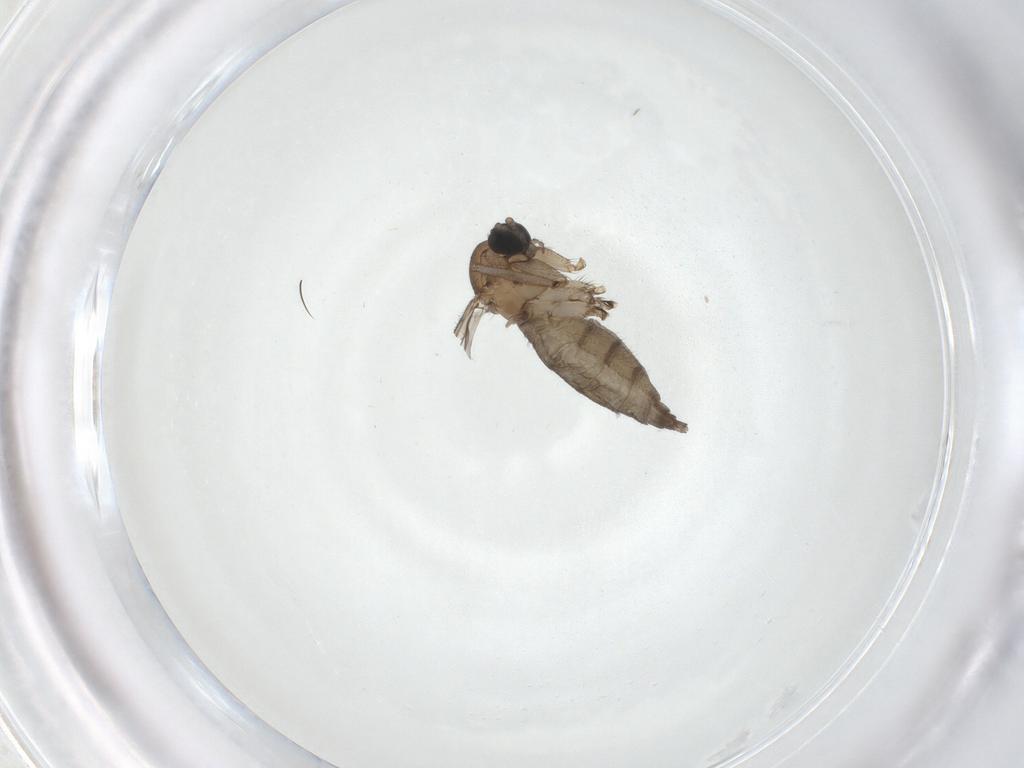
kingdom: Animalia
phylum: Arthropoda
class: Insecta
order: Diptera
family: Sciaridae
